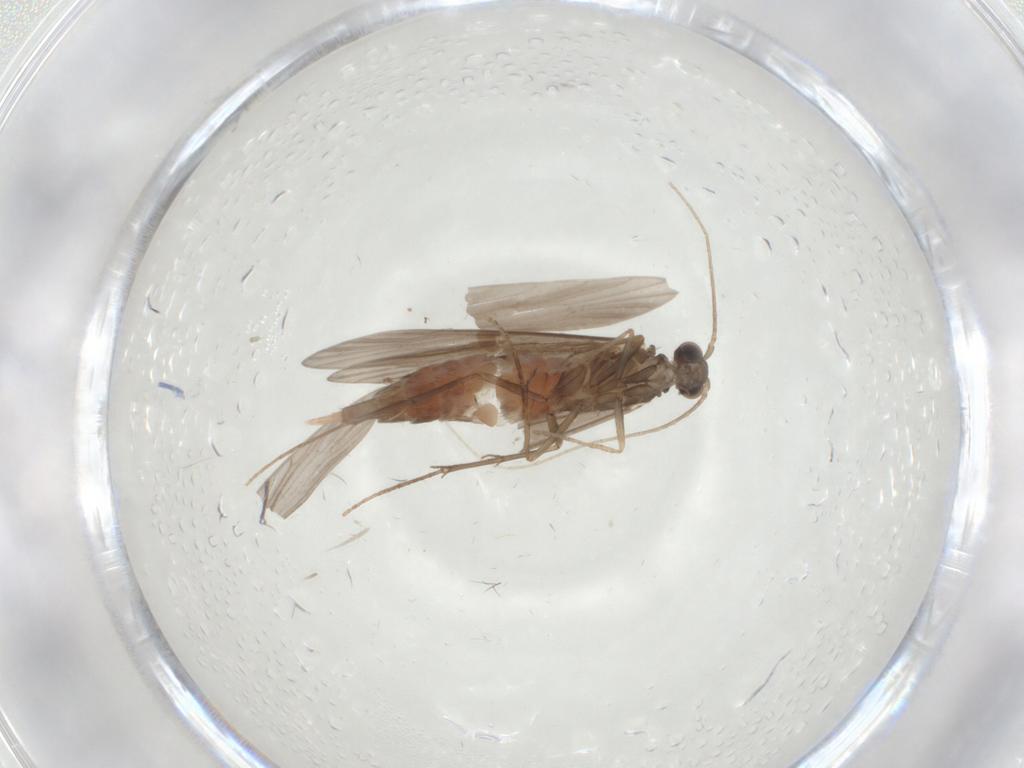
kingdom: Animalia
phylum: Arthropoda
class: Insecta
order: Trichoptera
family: Xiphocentronidae
